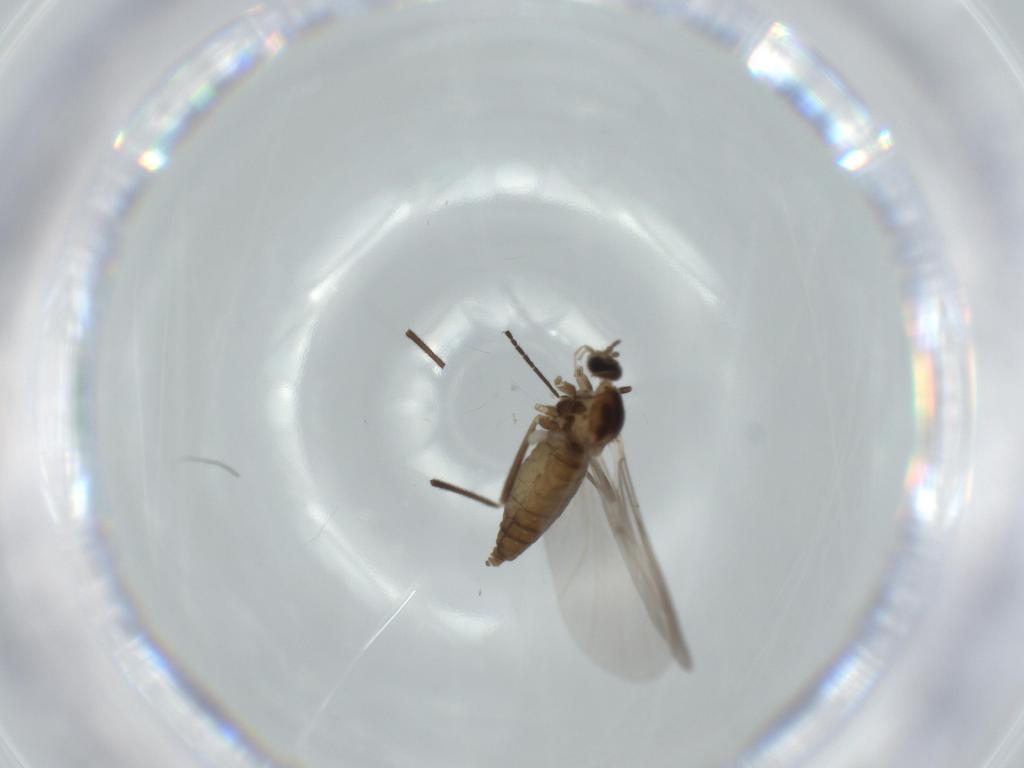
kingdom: Animalia
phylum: Arthropoda
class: Insecta
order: Diptera
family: Cecidomyiidae
